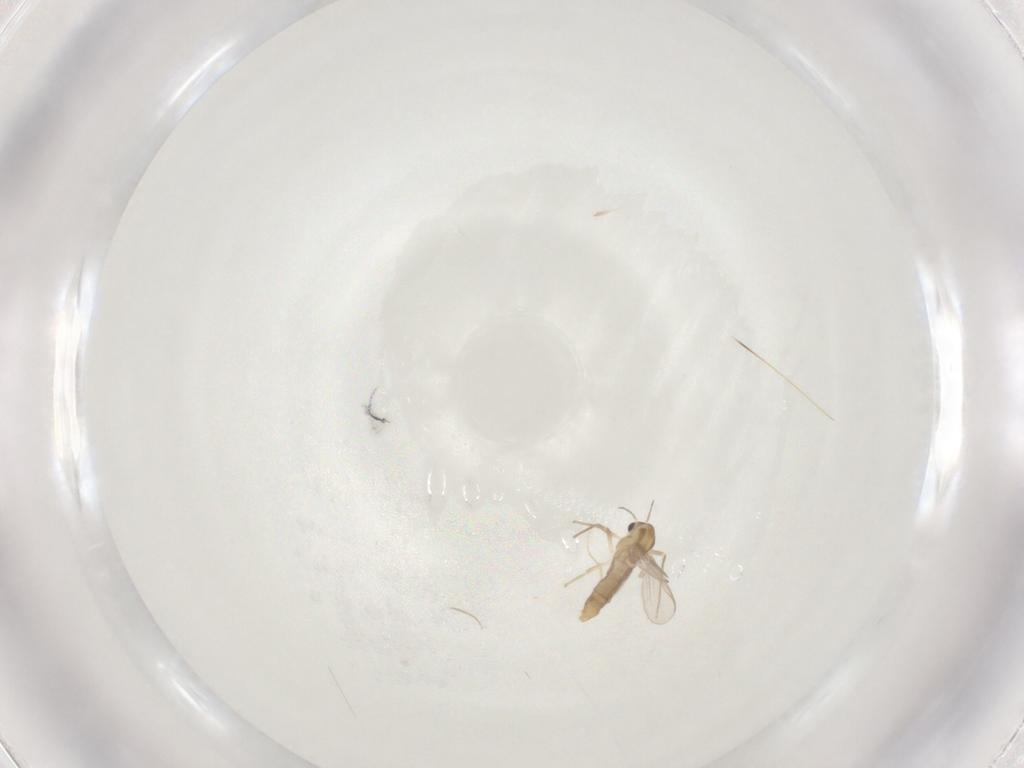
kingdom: Animalia
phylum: Arthropoda
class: Insecta
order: Diptera
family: Chironomidae
